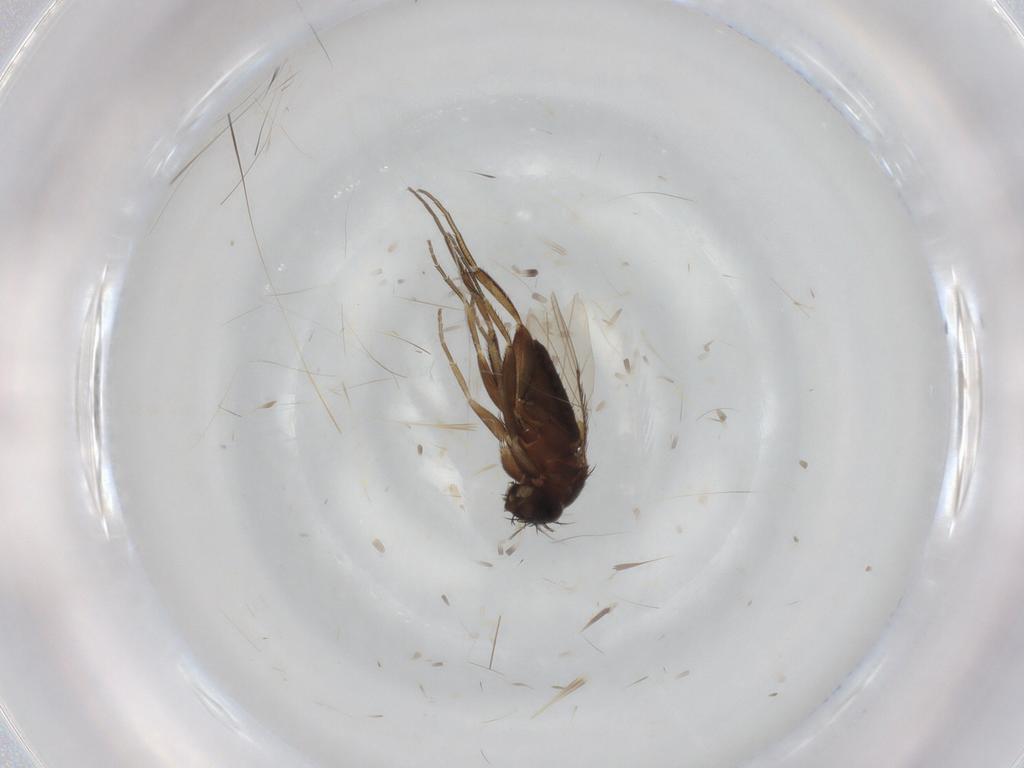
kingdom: Animalia
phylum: Arthropoda
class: Insecta
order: Diptera
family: Phoridae
